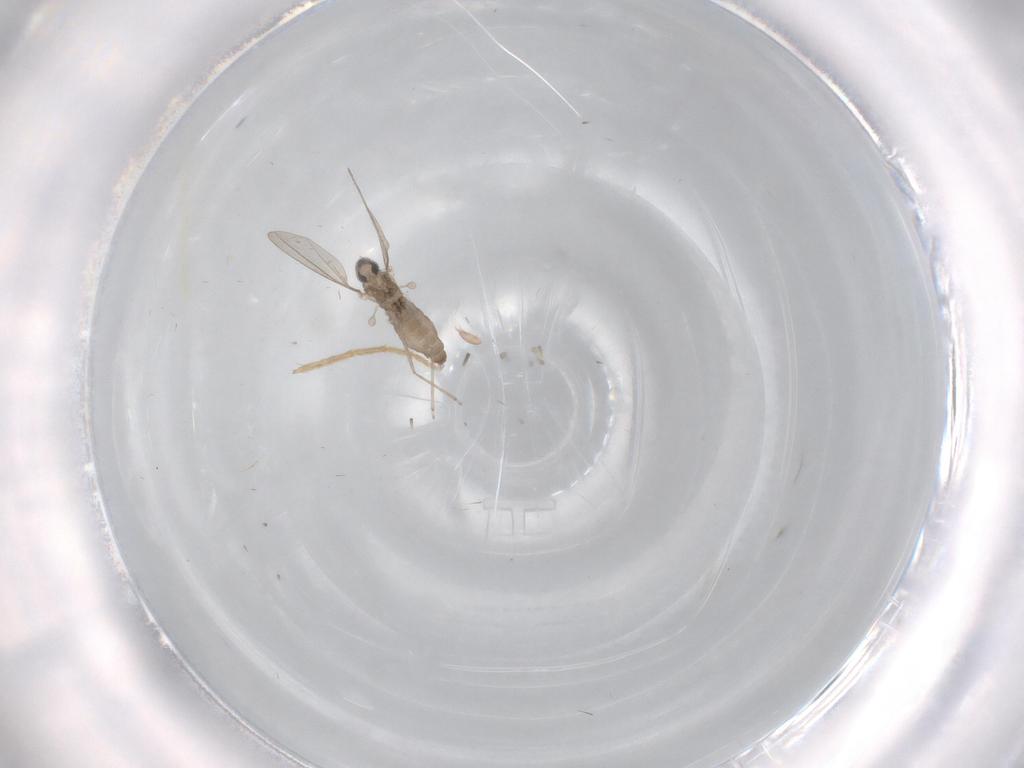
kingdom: Animalia
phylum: Arthropoda
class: Insecta
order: Diptera
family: Cecidomyiidae
